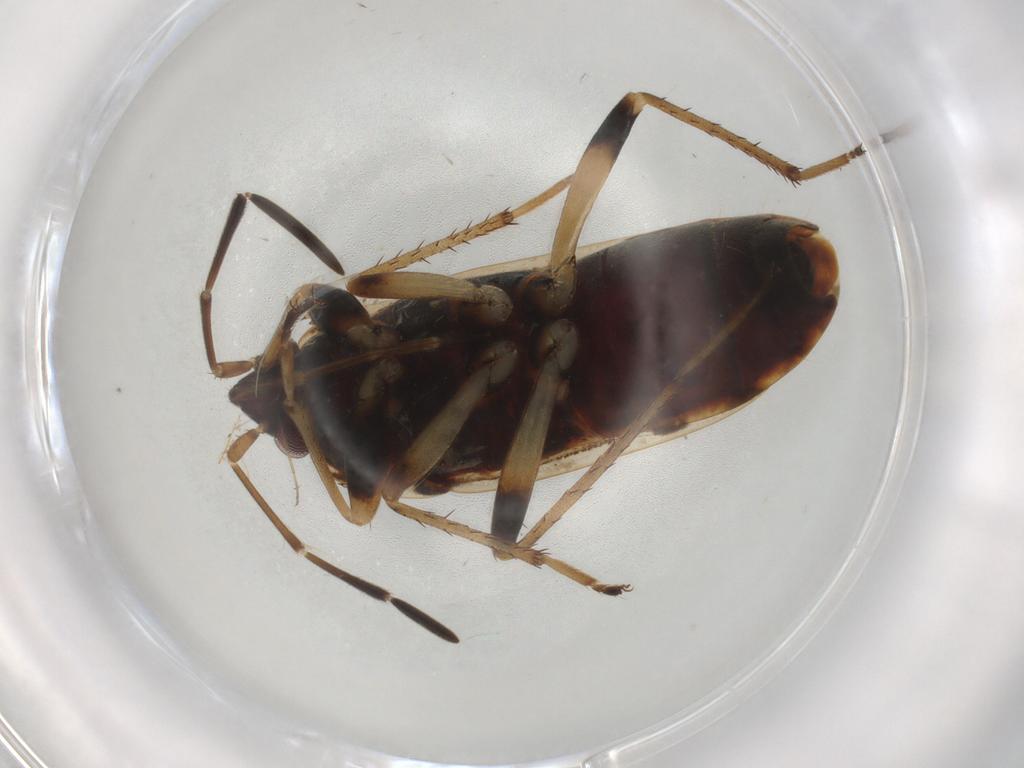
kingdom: Animalia
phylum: Arthropoda
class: Insecta
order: Hemiptera
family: Rhyparochromidae
